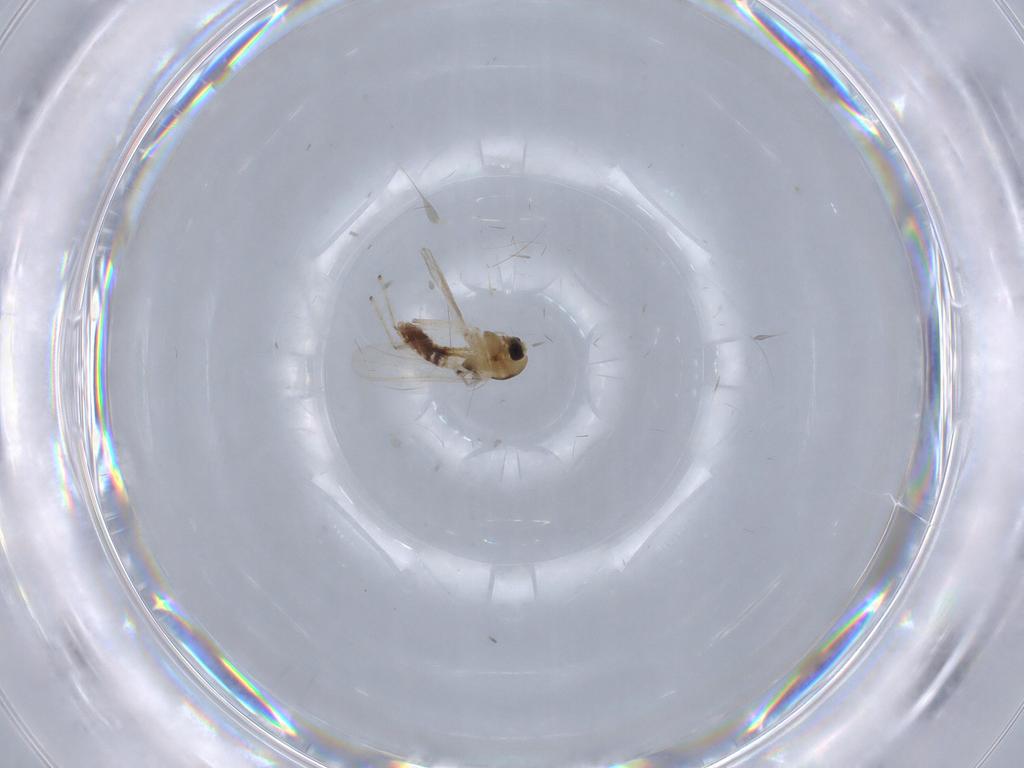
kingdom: Animalia
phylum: Arthropoda
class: Insecta
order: Diptera
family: Chironomidae
